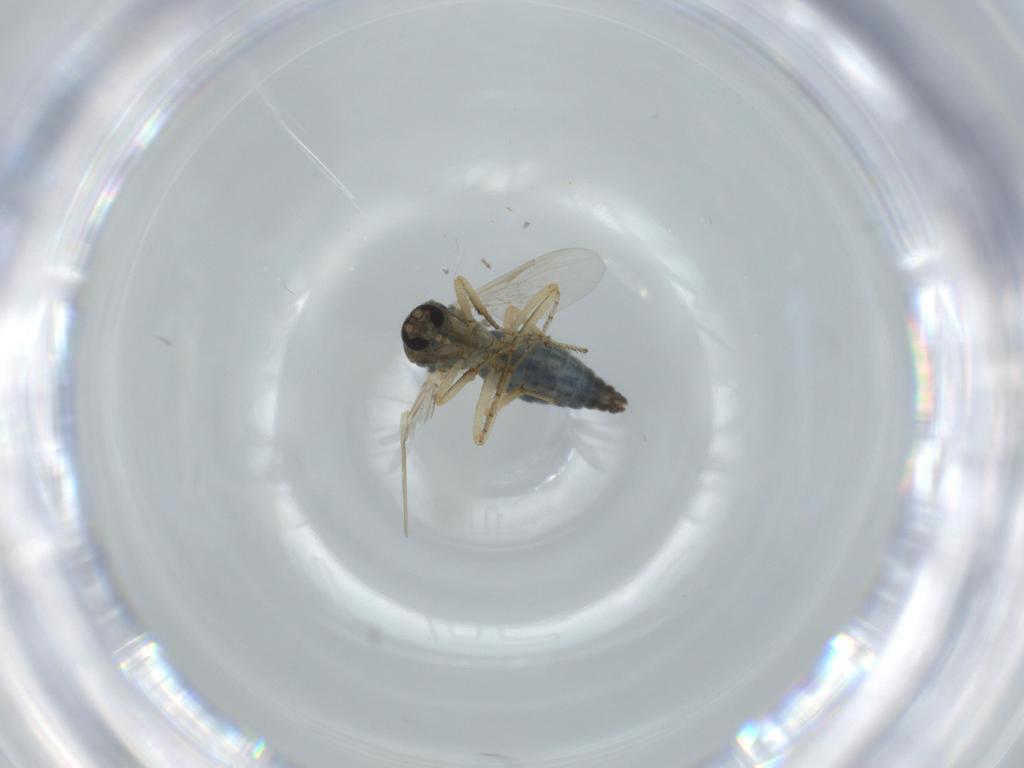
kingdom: Animalia
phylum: Arthropoda
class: Insecta
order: Diptera
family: Ceratopogonidae
